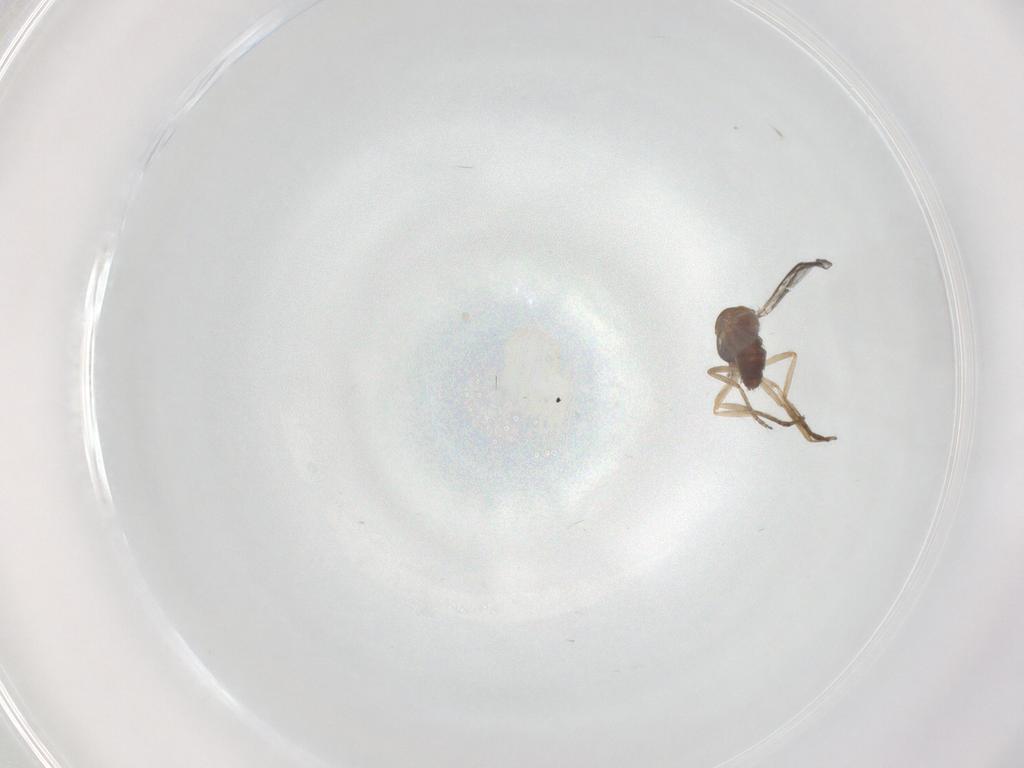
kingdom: Animalia
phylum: Arthropoda
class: Insecta
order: Diptera
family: Ceratopogonidae
